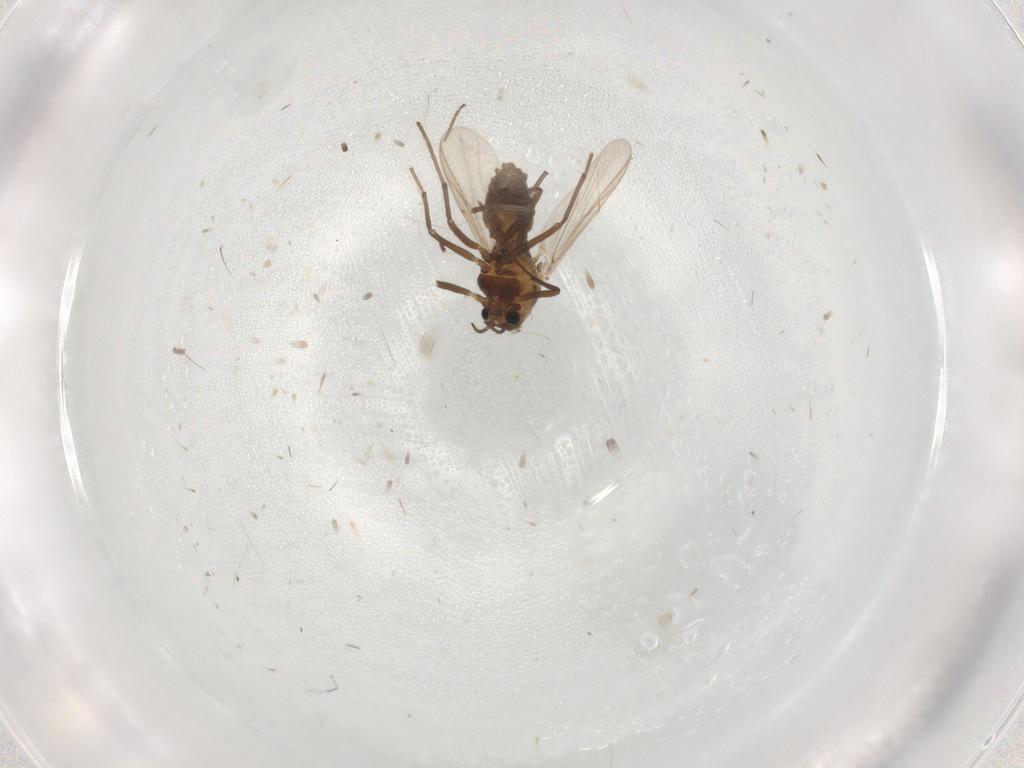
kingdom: Animalia
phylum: Arthropoda
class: Insecta
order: Diptera
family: Chironomidae
